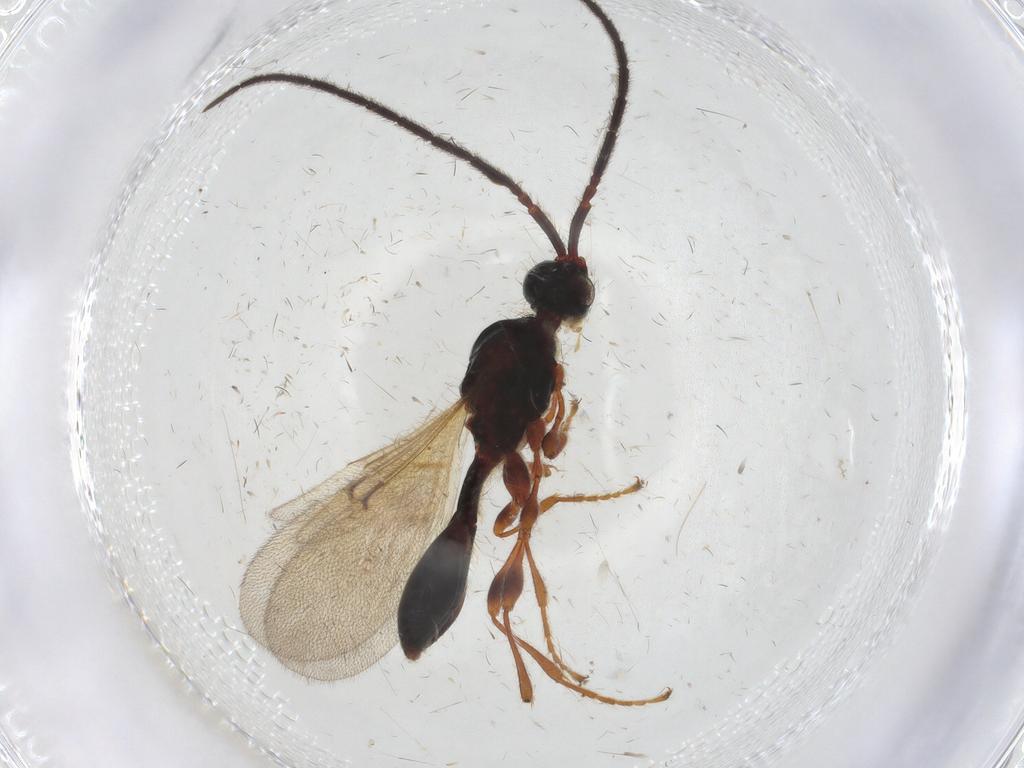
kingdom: Animalia
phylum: Arthropoda
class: Insecta
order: Hymenoptera
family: Diapriidae
